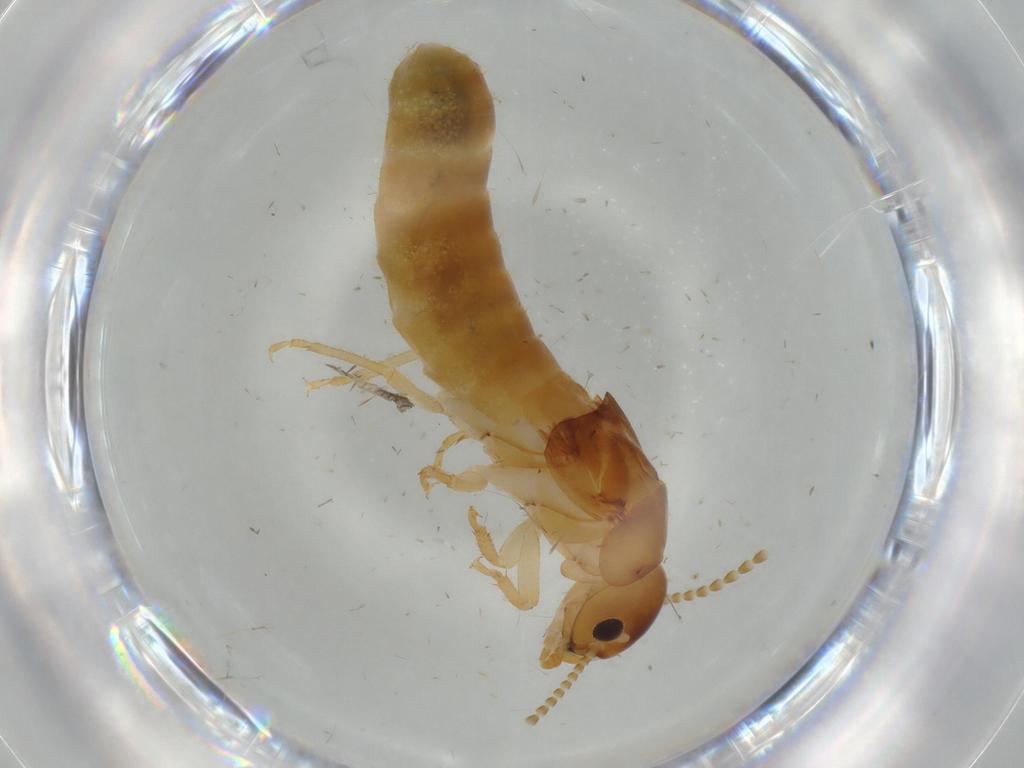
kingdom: Animalia
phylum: Arthropoda
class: Insecta
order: Blattodea
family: Kalotermitidae
